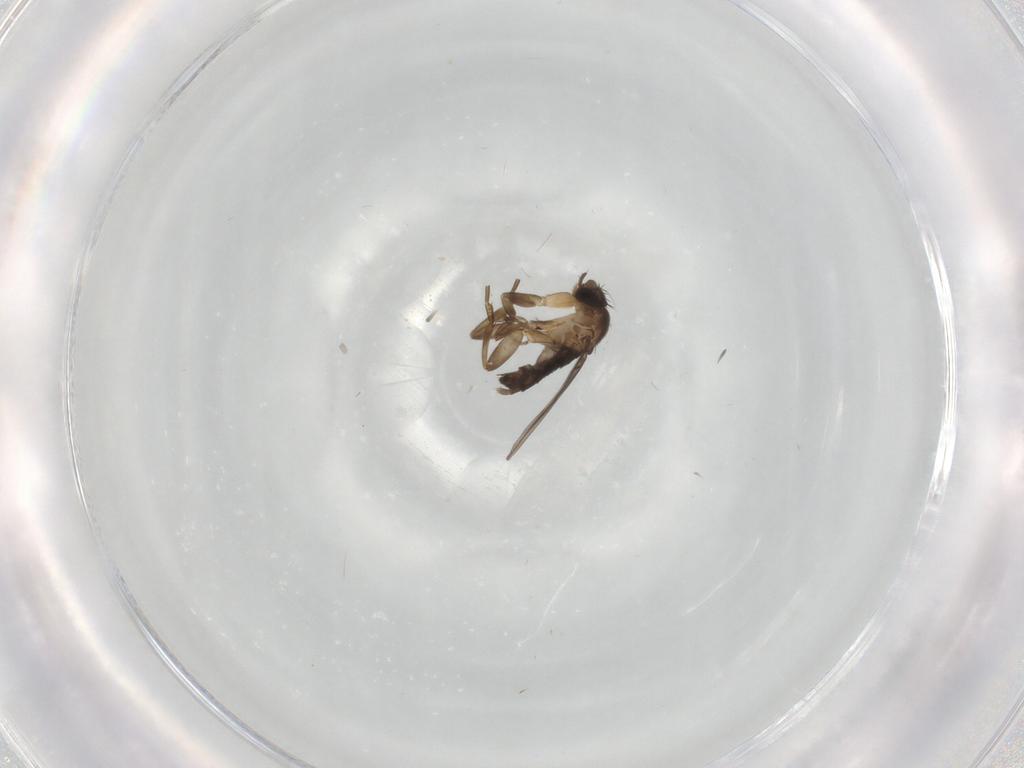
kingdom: Animalia
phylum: Arthropoda
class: Insecta
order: Diptera
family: Phoridae
